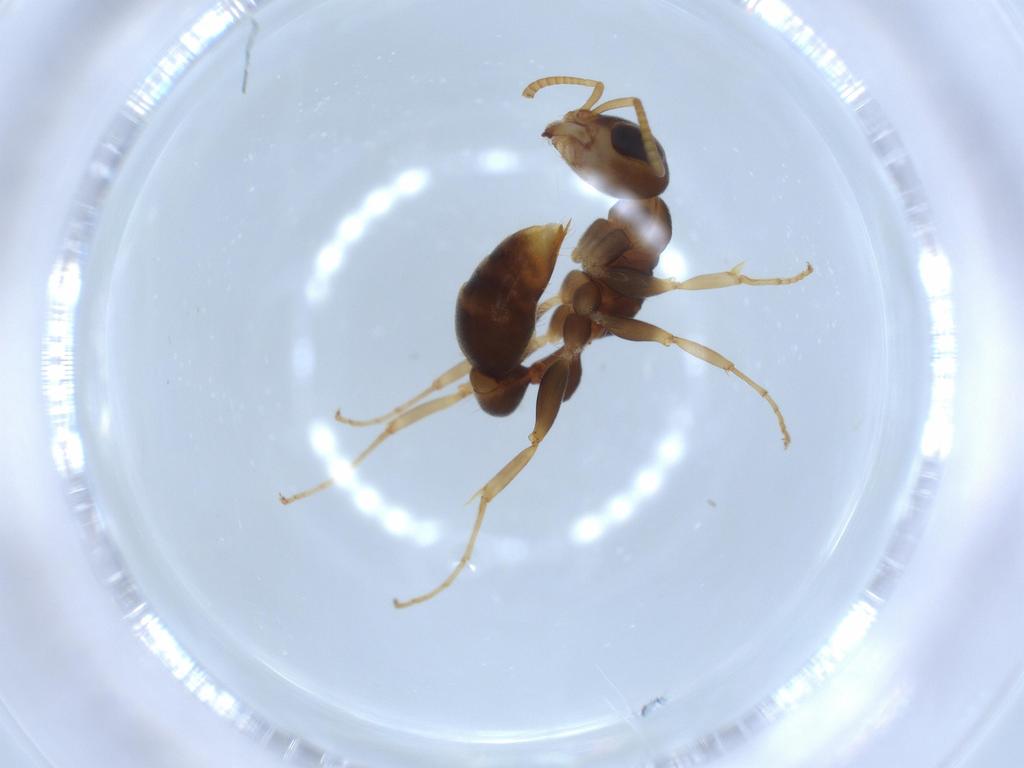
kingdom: Animalia
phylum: Arthropoda
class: Insecta
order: Hymenoptera
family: Formicidae
